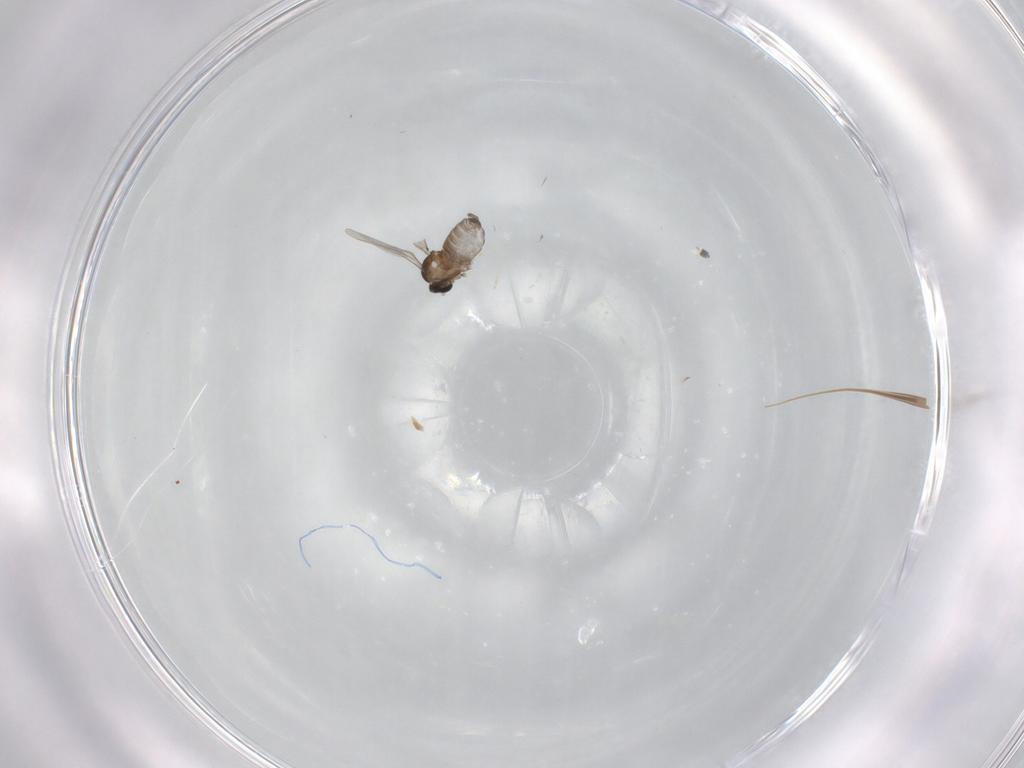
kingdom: Animalia
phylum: Arthropoda
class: Insecta
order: Diptera
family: Cecidomyiidae
